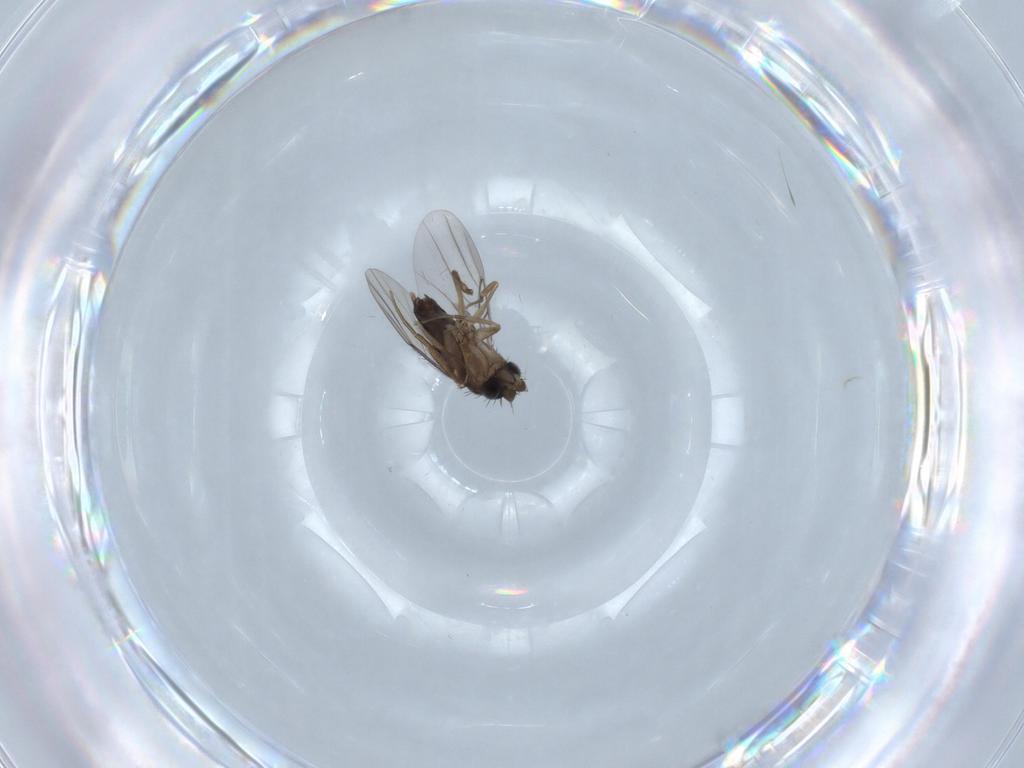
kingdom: Animalia
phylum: Arthropoda
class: Insecta
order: Diptera
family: Phoridae
